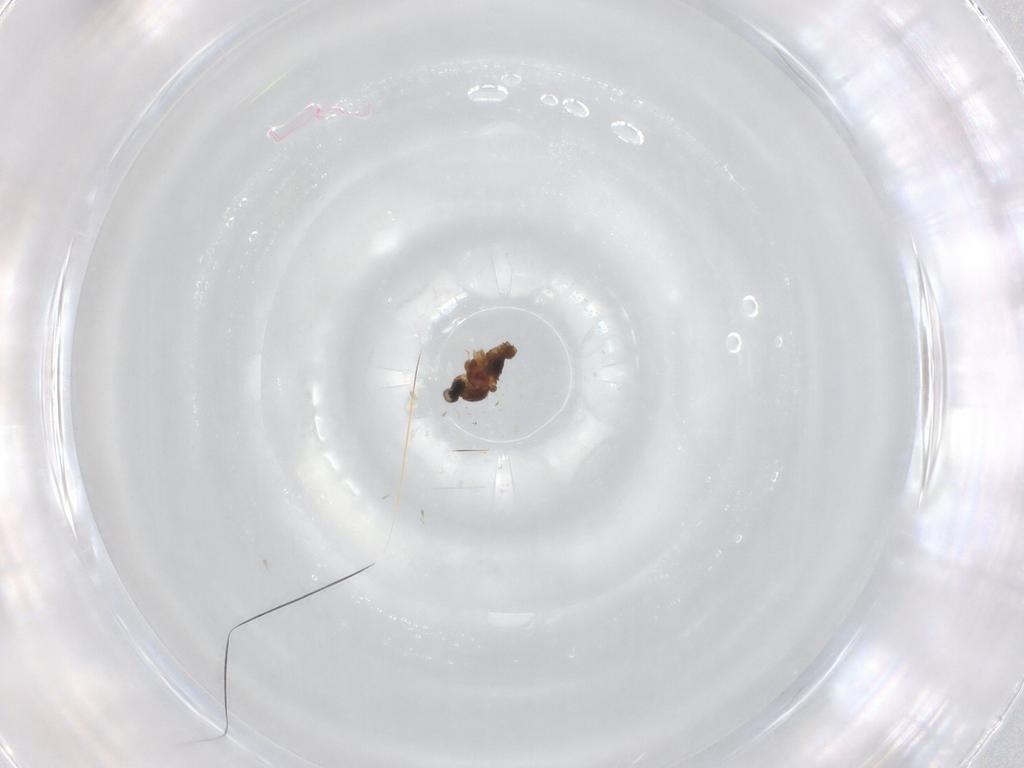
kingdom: Animalia
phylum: Arthropoda
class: Insecta
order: Diptera
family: Cecidomyiidae
